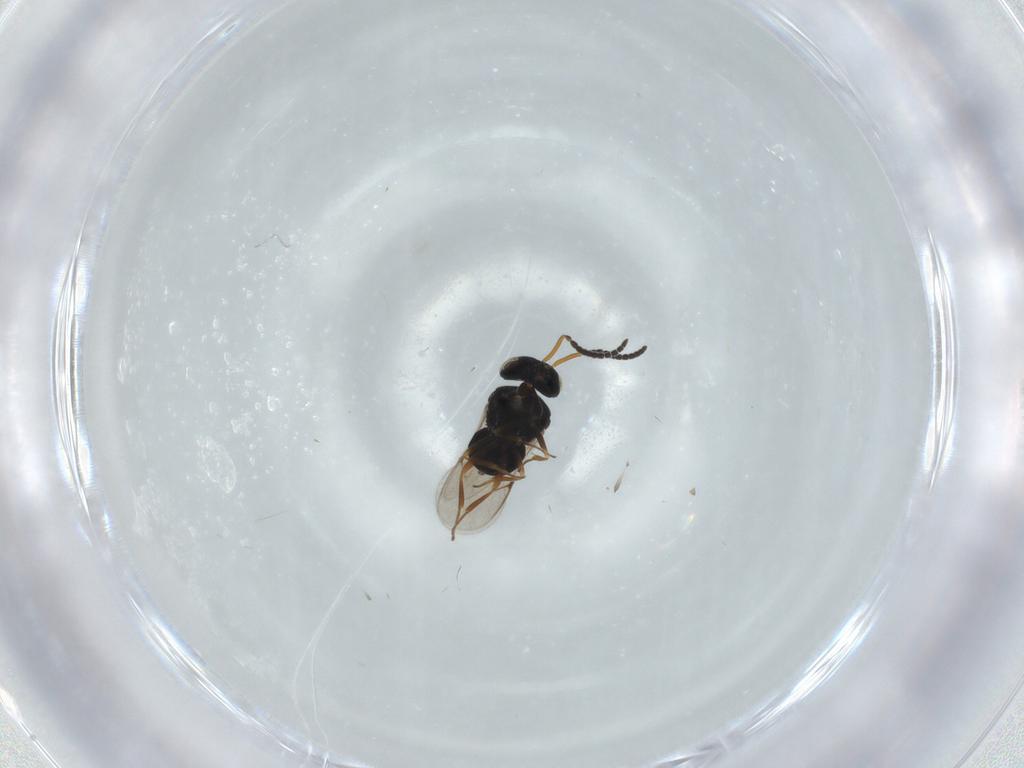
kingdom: Animalia
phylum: Arthropoda
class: Insecta
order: Hymenoptera
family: Scelionidae
